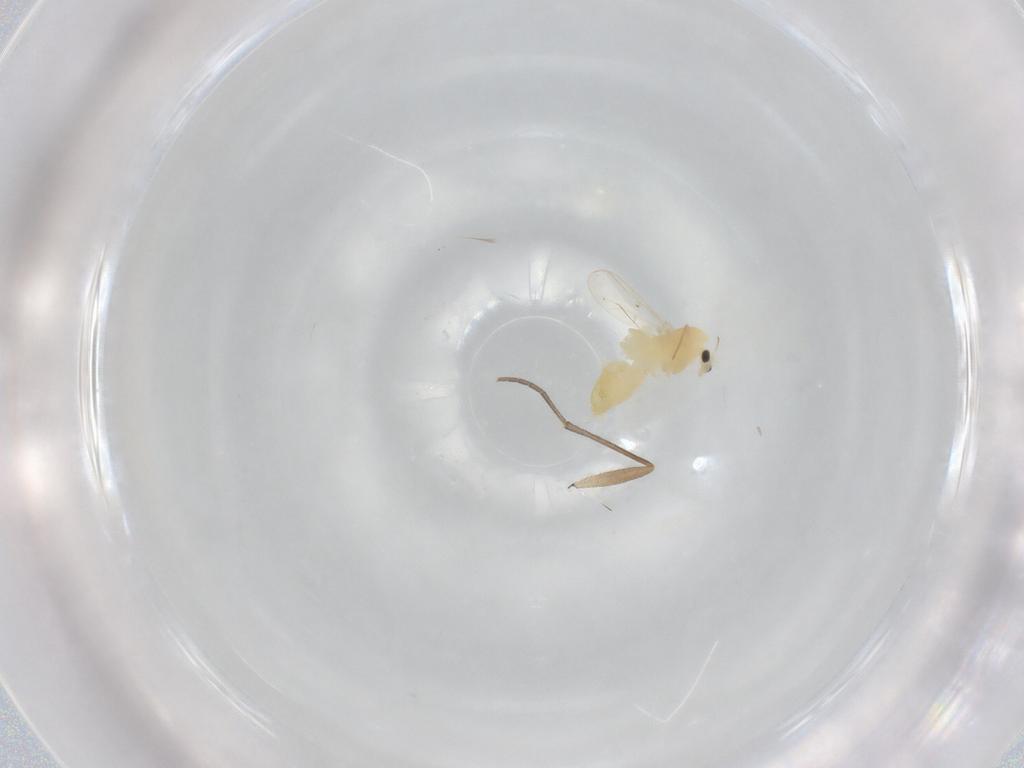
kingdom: Animalia
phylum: Arthropoda
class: Insecta
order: Diptera
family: Chironomidae
